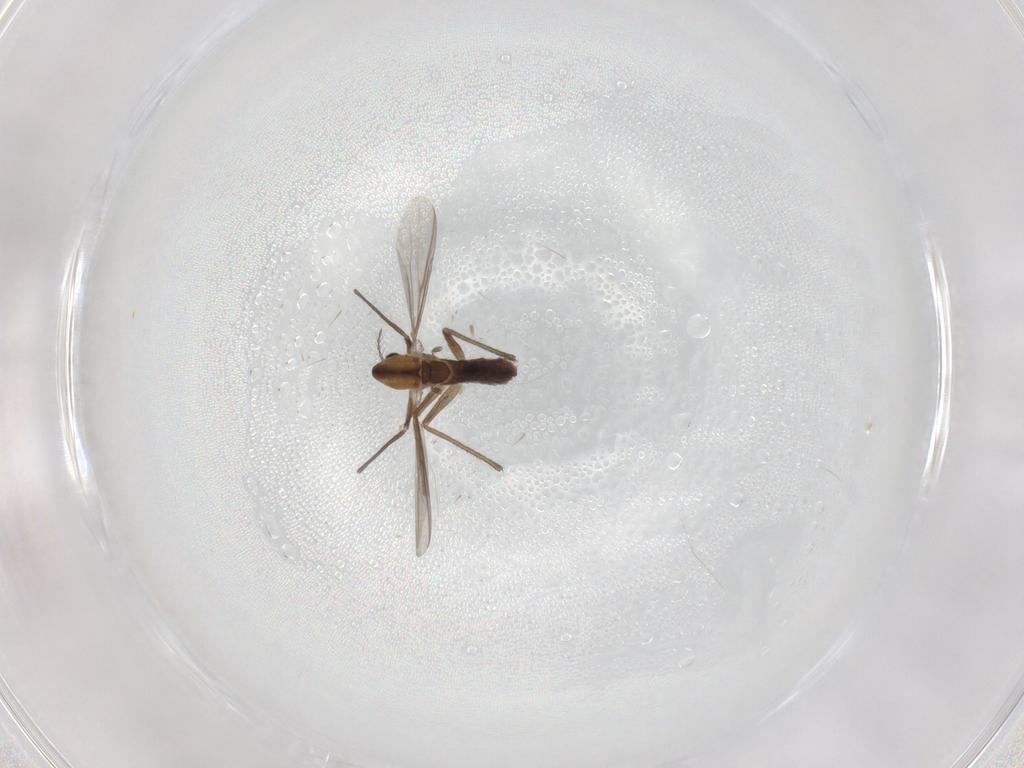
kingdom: Animalia
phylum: Arthropoda
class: Insecta
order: Diptera
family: Chironomidae
